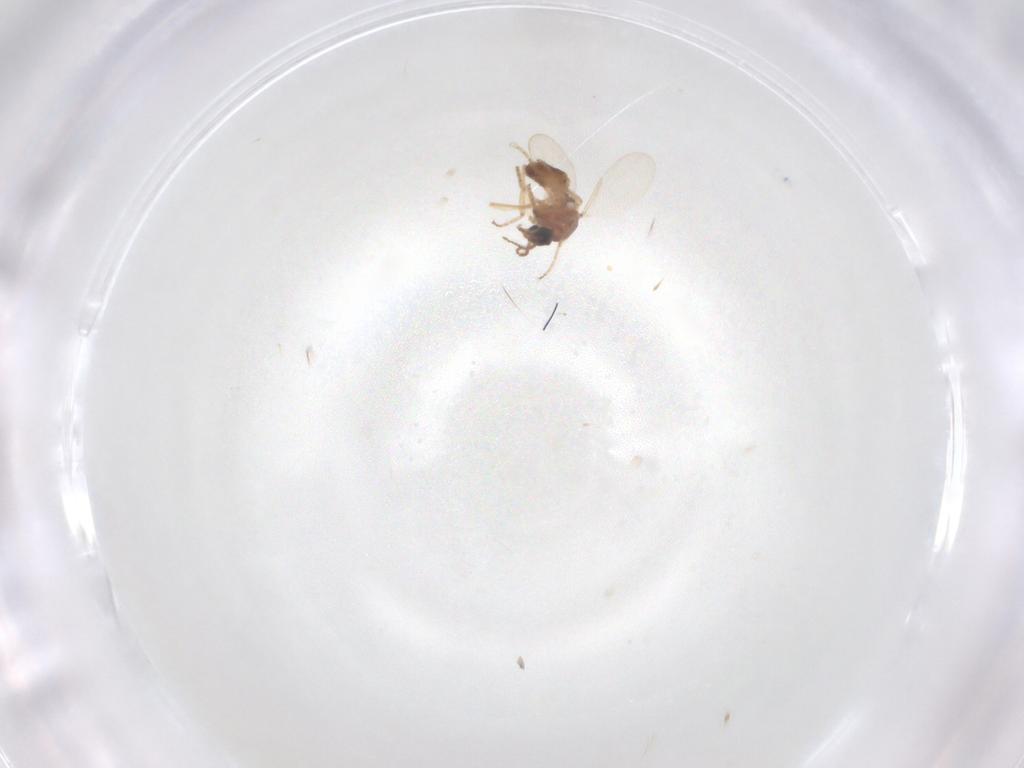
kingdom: Animalia
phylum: Arthropoda
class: Insecta
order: Diptera
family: Ceratopogonidae
